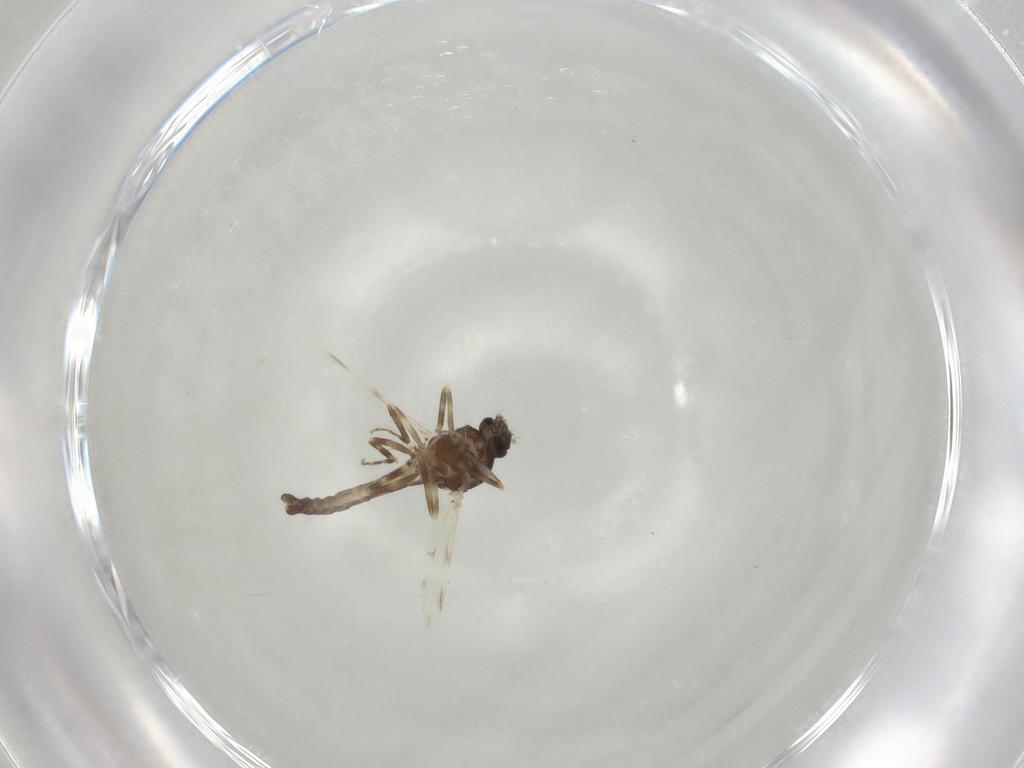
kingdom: Animalia
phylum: Arthropoda
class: Insecta
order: Diptera
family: Ceratopogonidae
